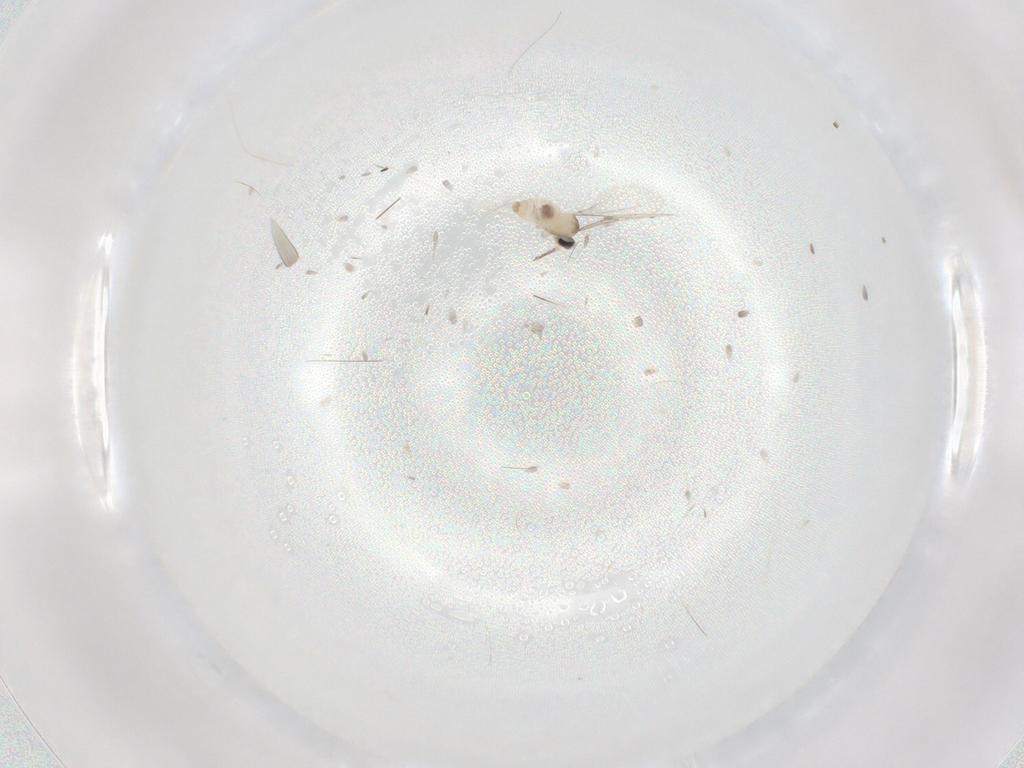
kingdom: Animalia
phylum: Arthropoda
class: Insecta
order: Diptera
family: Cecidomyiidae
